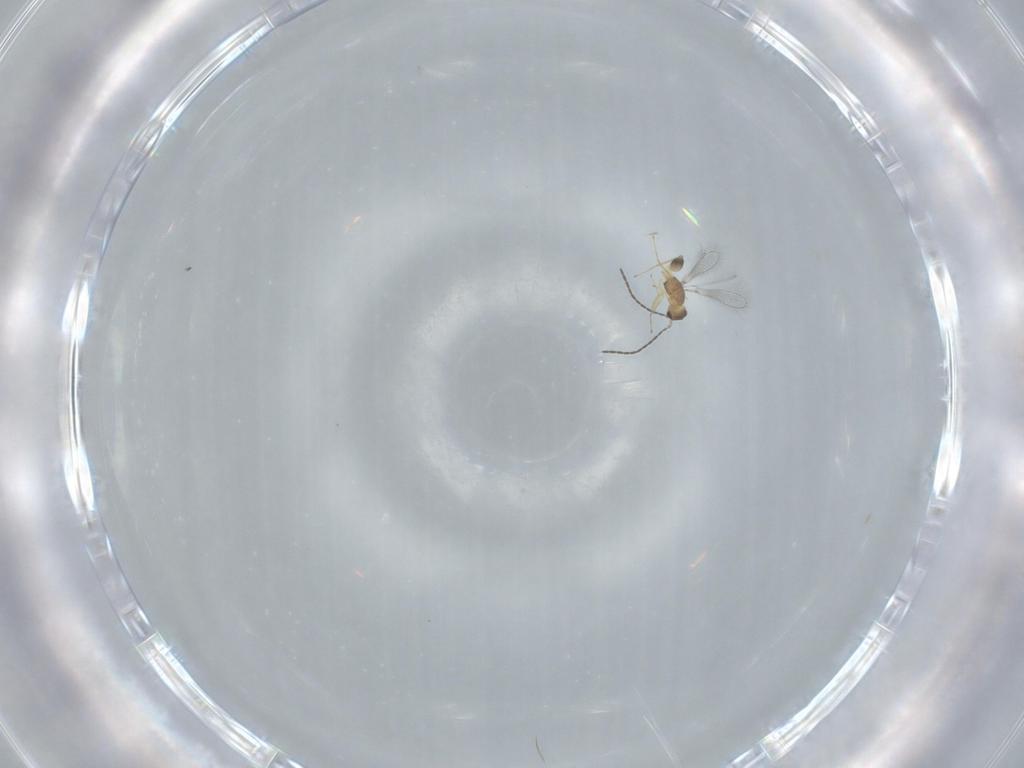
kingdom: Animalia
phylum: Arthropoda
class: Insecta
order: Hymenoptera
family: Mymaridae
